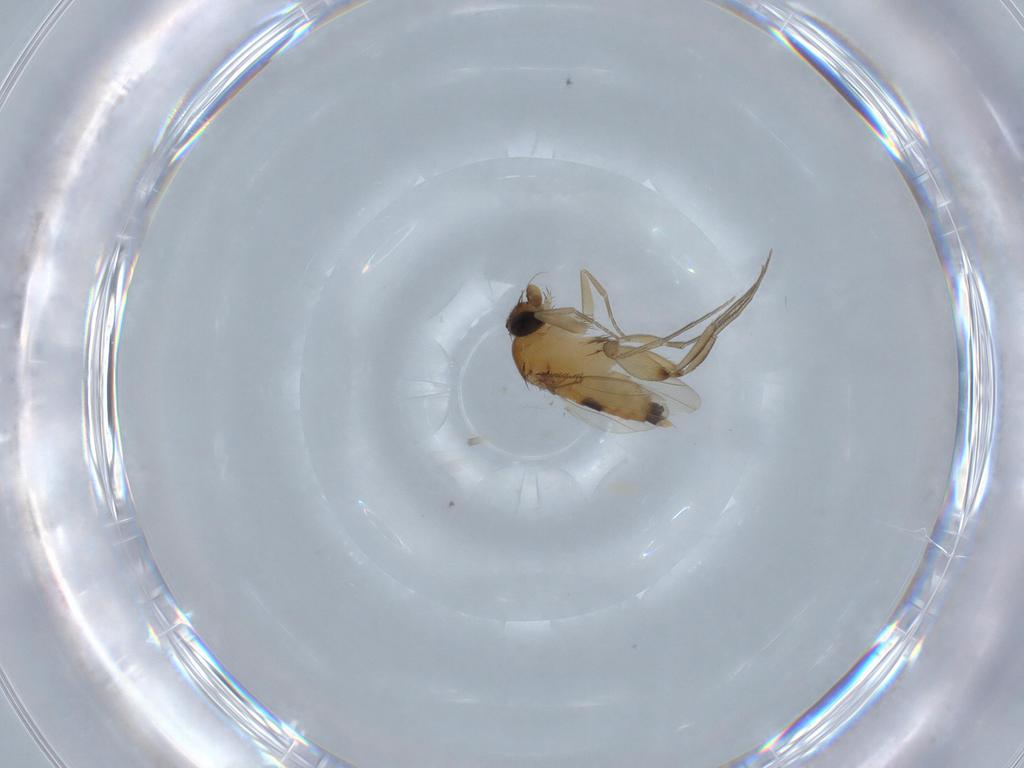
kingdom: Animalia
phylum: Arthropoda
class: Insecta
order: Diptera
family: Phoridae
